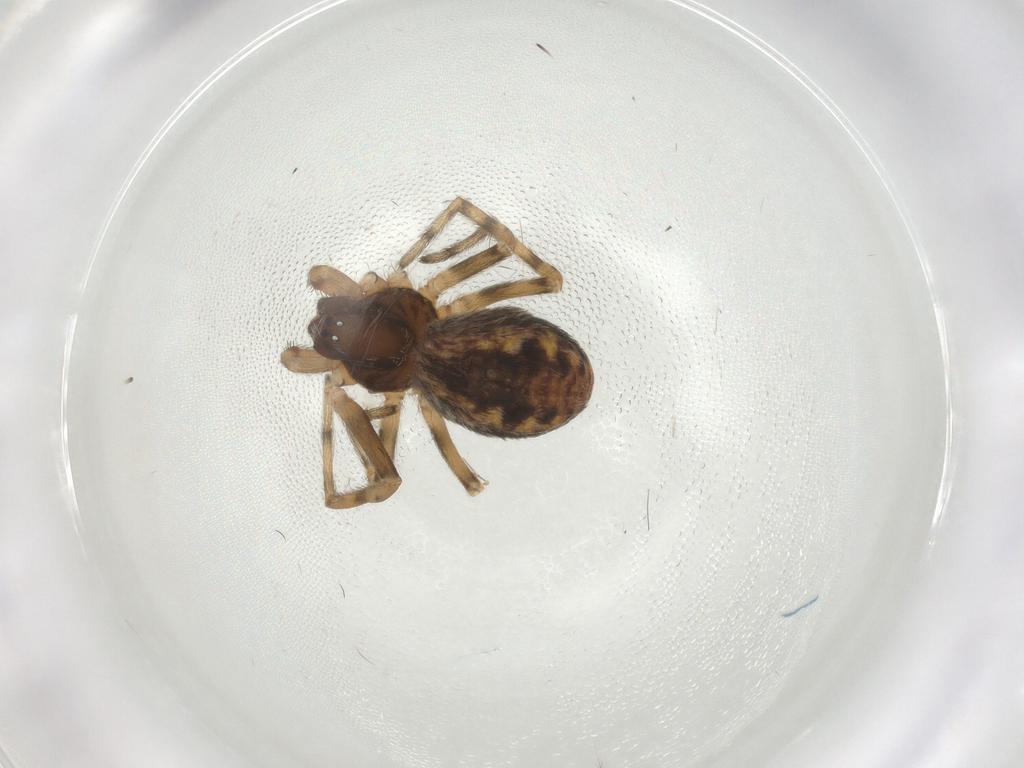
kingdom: Animalia
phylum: Arthropoda
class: Arachnida
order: Araneae
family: Dictynidae
